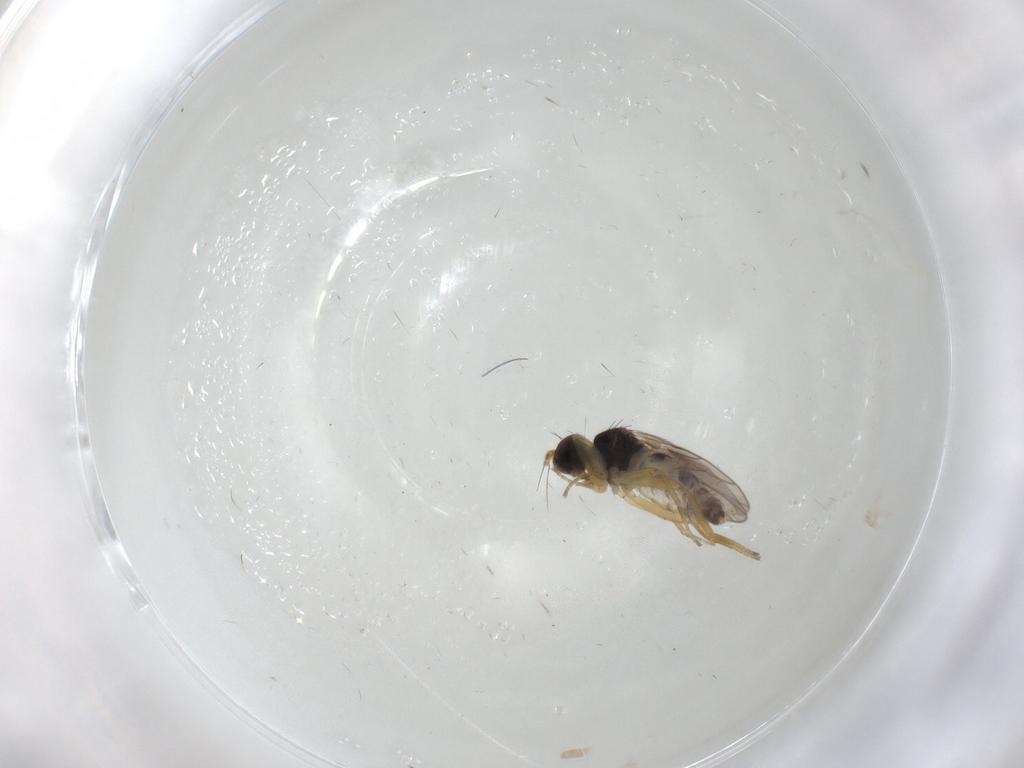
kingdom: Animalia
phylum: Arthropoda
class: Insecta
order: Diptera
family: Hybotidae
